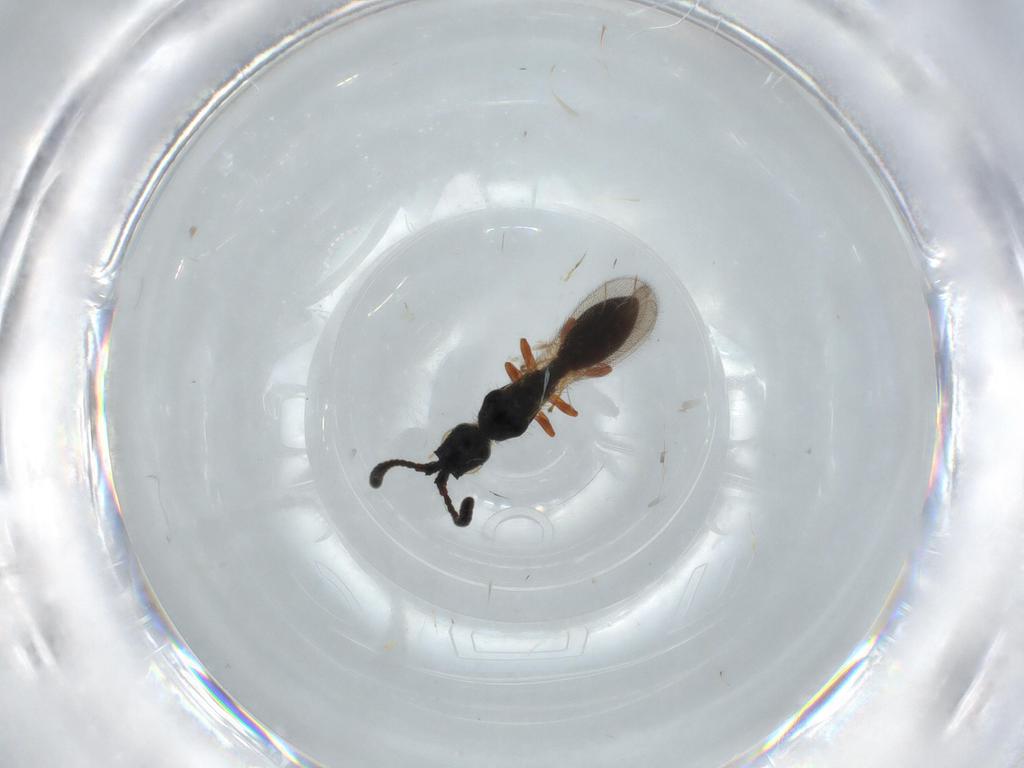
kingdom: Animalia
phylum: Arthropoda
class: Insecta
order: Hymenoptera
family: Diapriidae
